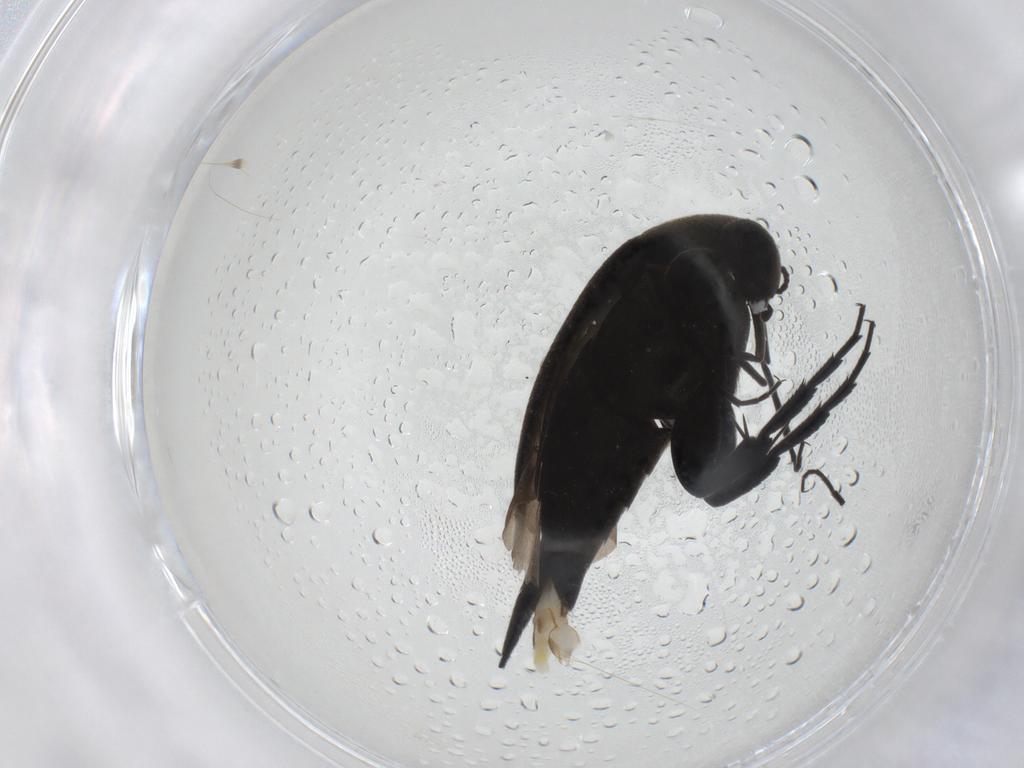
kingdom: Animalia
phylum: Arthropoda
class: Insecta
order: Coleoptera
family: Mordellidae
